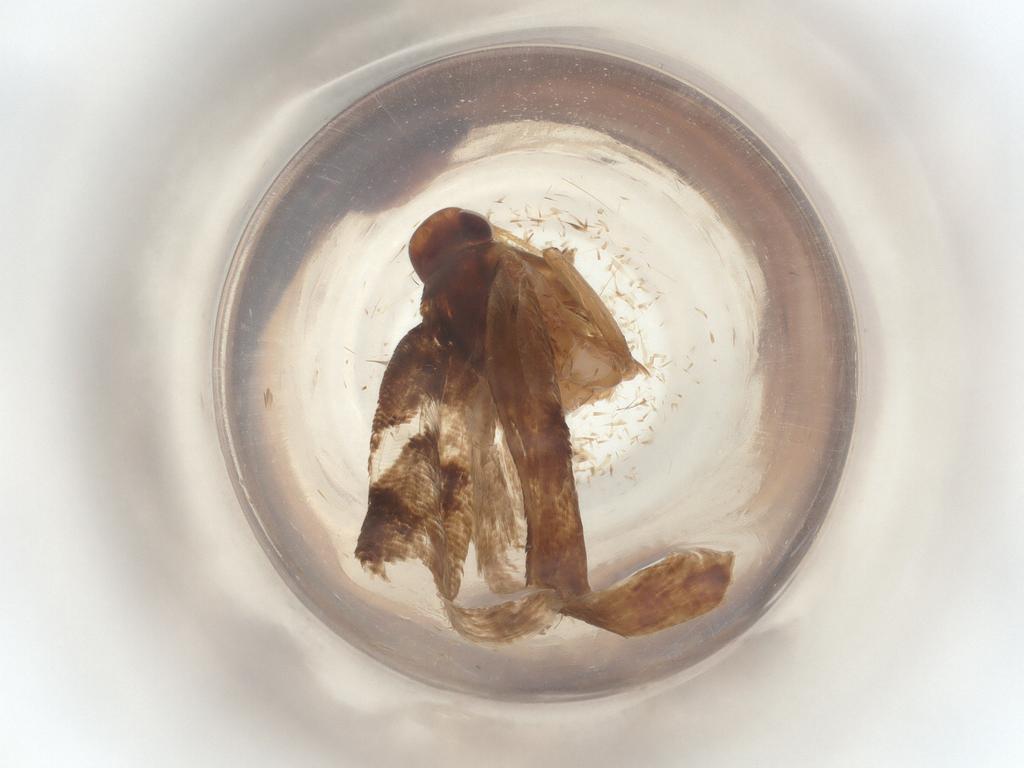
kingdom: Animalia
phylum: Arthropoda
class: Insecta
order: Lepidoptera
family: Gelechiidae
